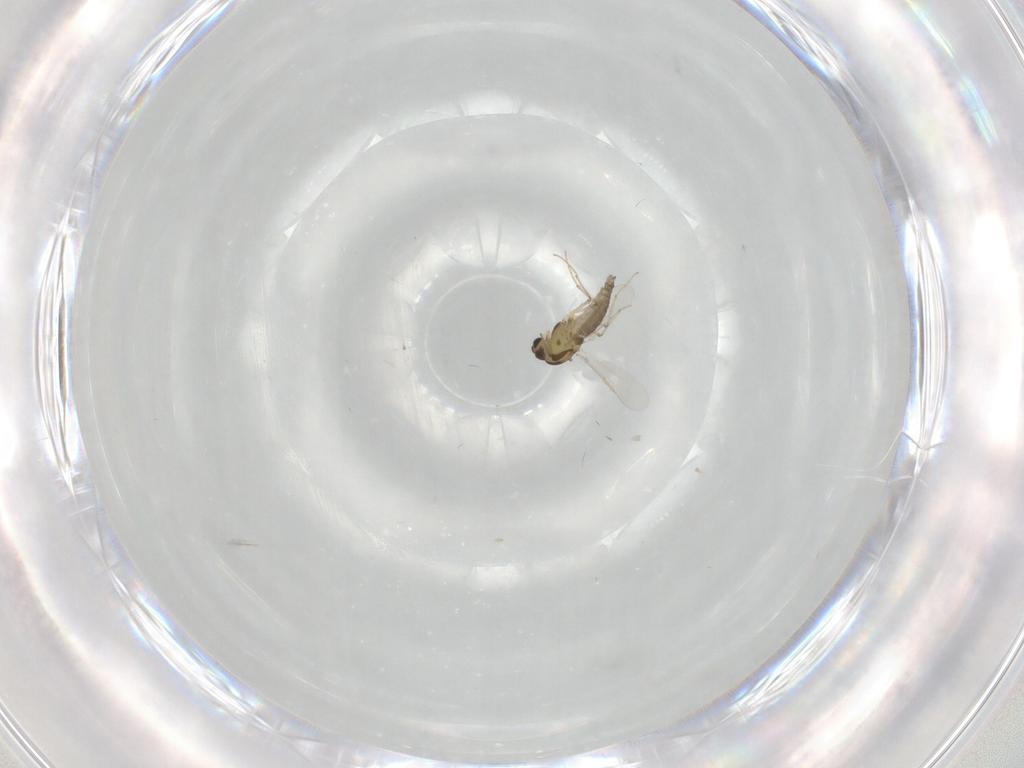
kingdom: Animalia
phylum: Arthropoda
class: Insecta
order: Diptera
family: Chironomidae
